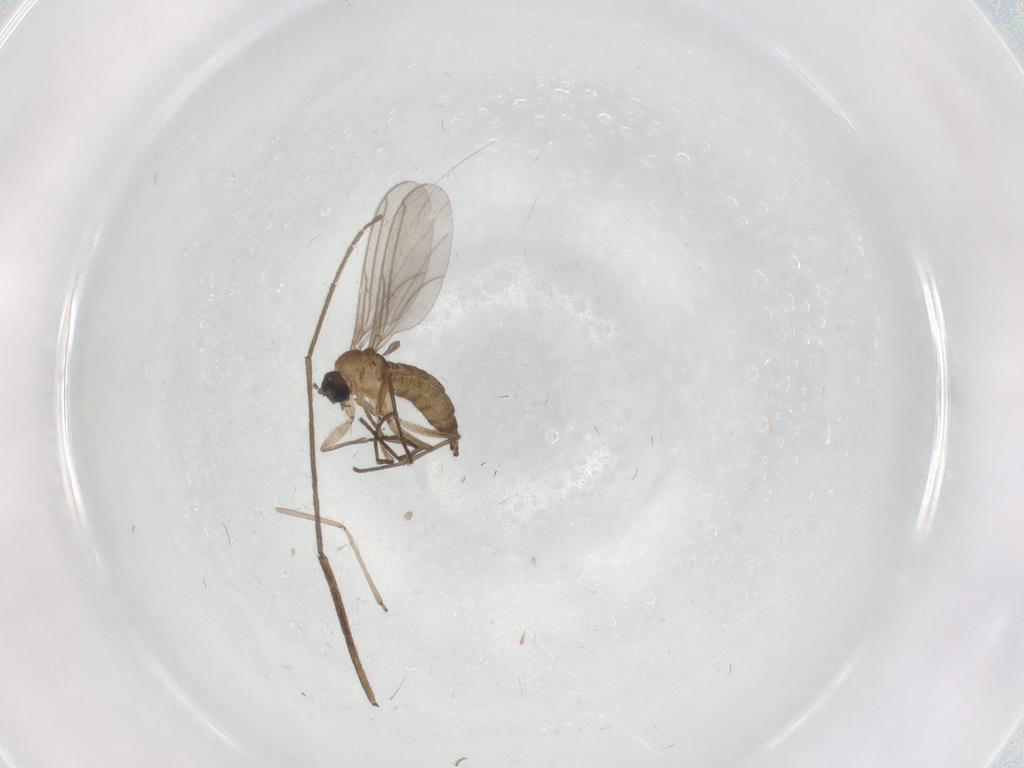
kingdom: Animalia
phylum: Arthropoda
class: Insecta
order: Diptera
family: Sciaridae
